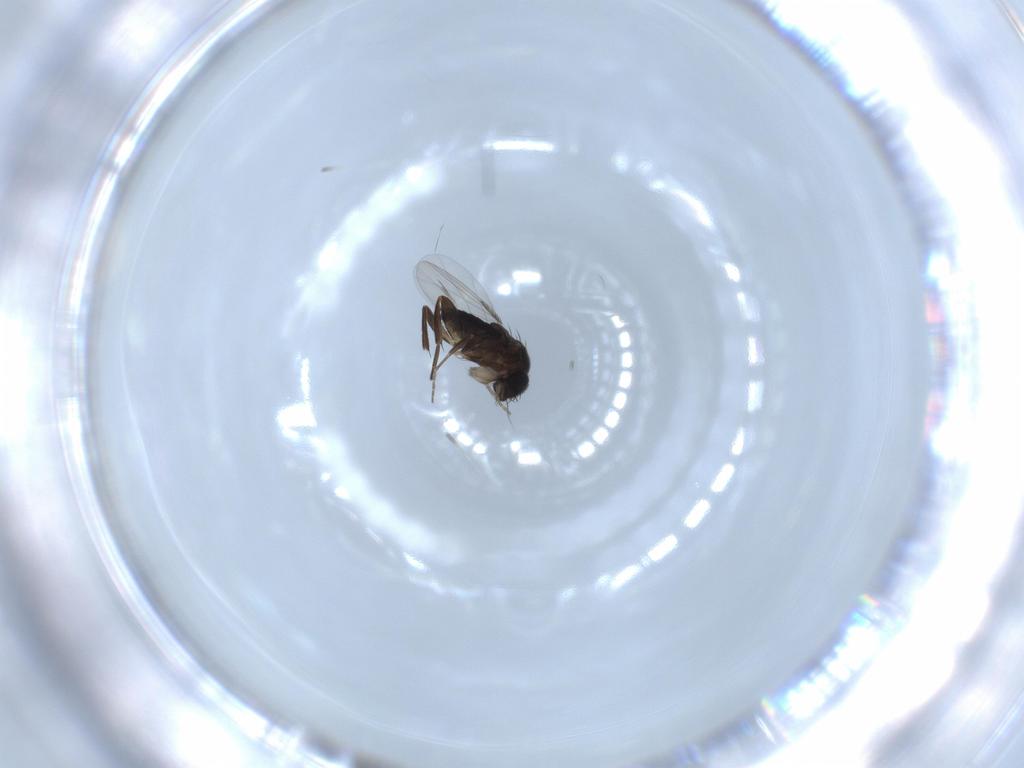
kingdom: Animalia
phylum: Arthropoda
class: Insecta
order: Diptera
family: Phoridae
